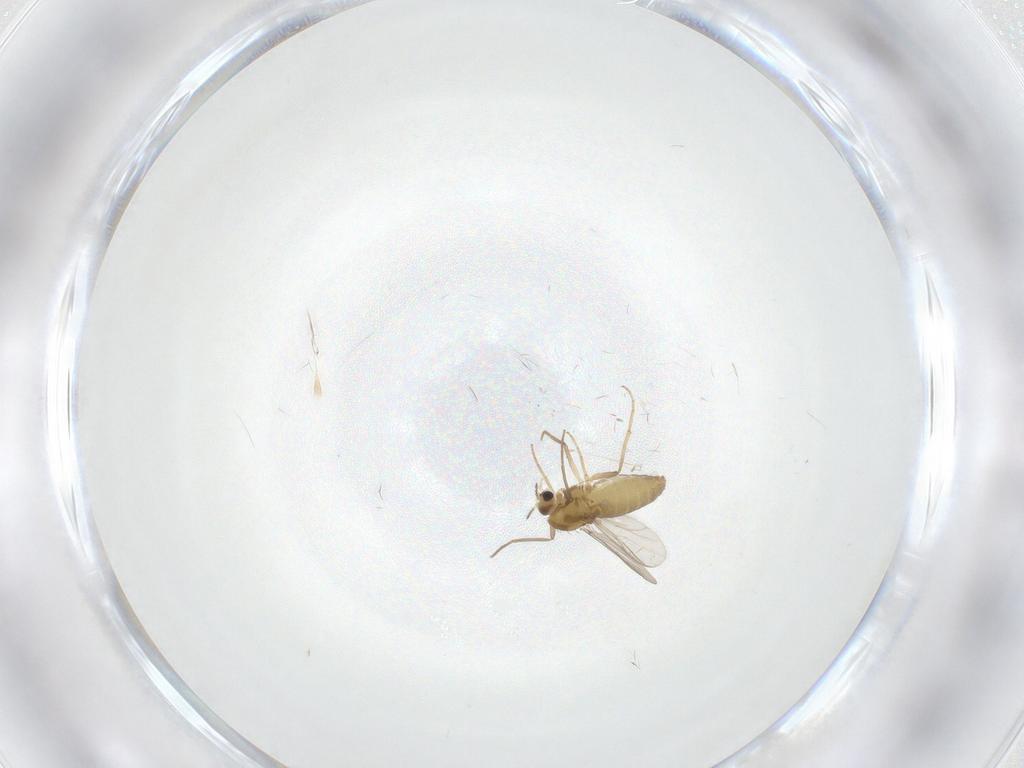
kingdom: Animalia
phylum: Arthropoda
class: Insecta
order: Diptera
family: Chironomidae
